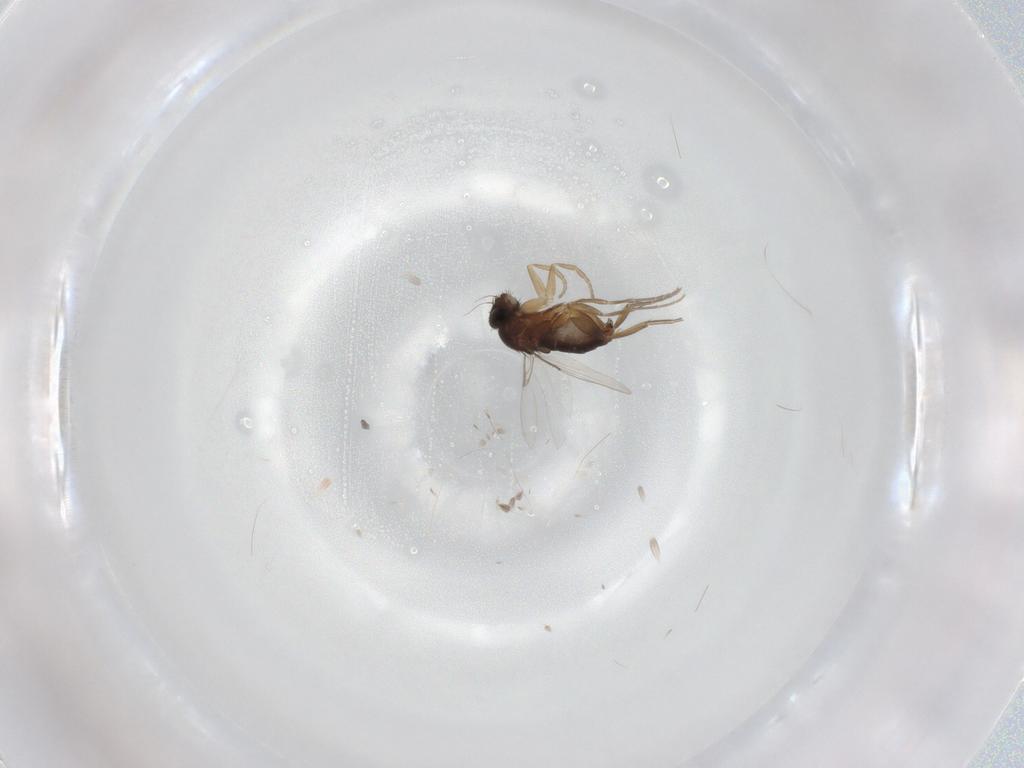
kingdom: Animalia
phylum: Arthropoda
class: Insecta
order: Diptera
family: Phoridae
